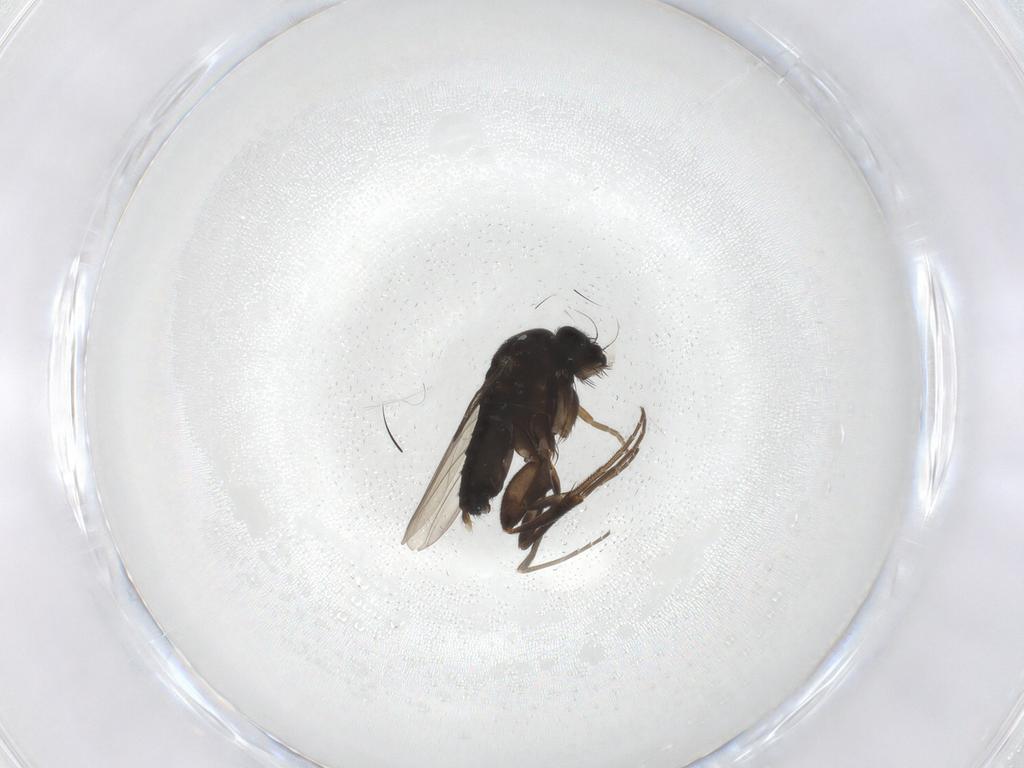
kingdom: Animalia
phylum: Arthropoda
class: Insecta
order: Diptera
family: Phoridae
